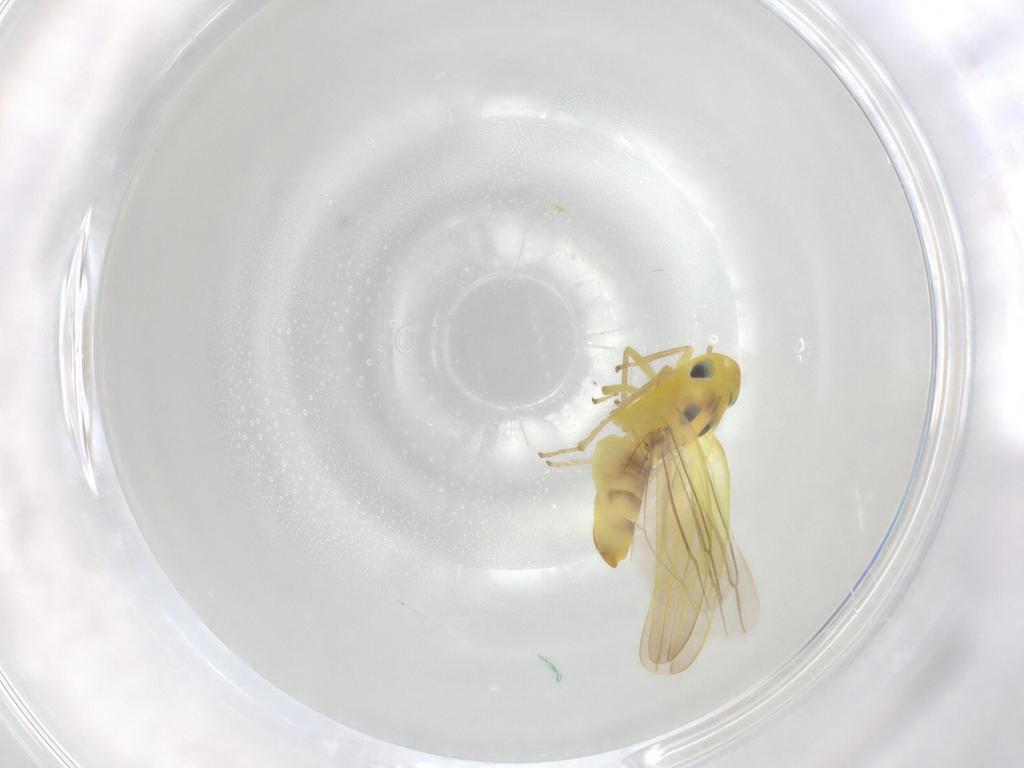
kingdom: Animalia
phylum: Arthropoda
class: Insecta
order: Hemiptera
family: Cicadellidae
